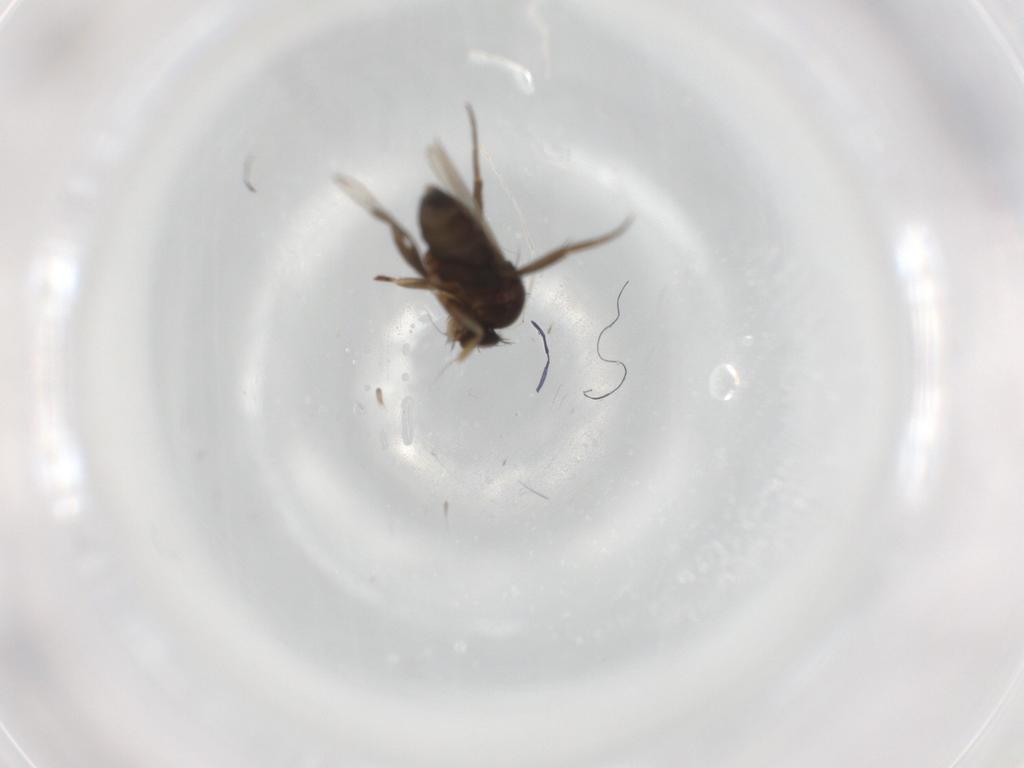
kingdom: Animalia
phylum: Arthropoda
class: Insecta
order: Diptera
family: Phoridae
